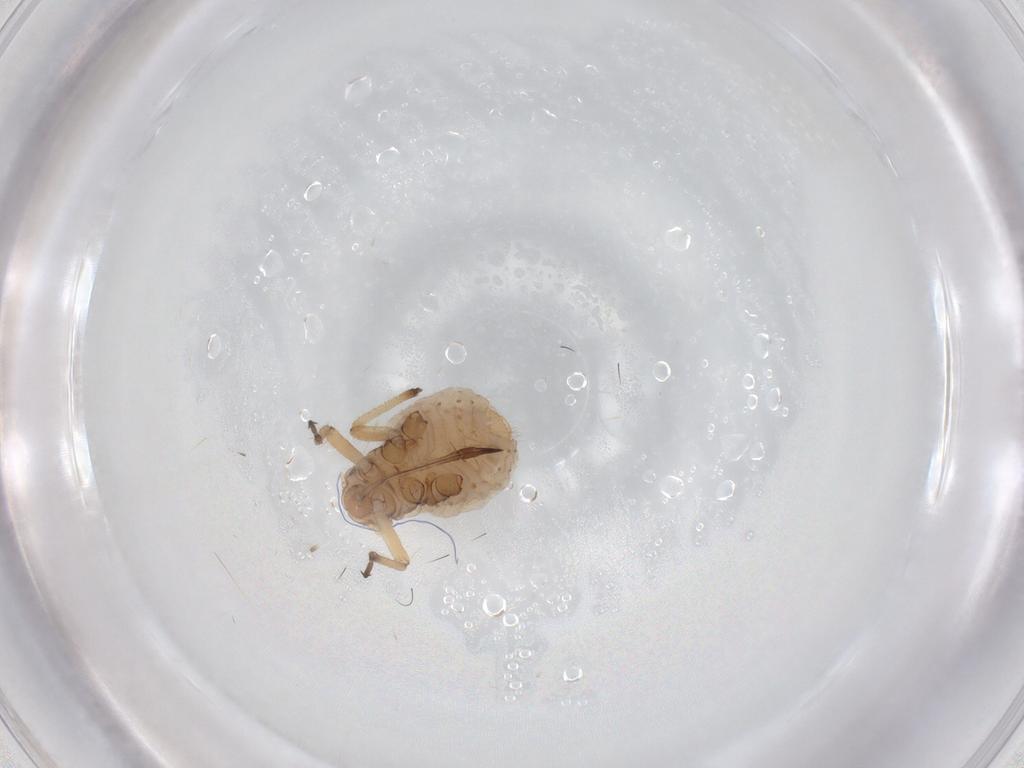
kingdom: Animalia
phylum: Arthropoda
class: Insecta
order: Hemiptera
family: Aphididae
